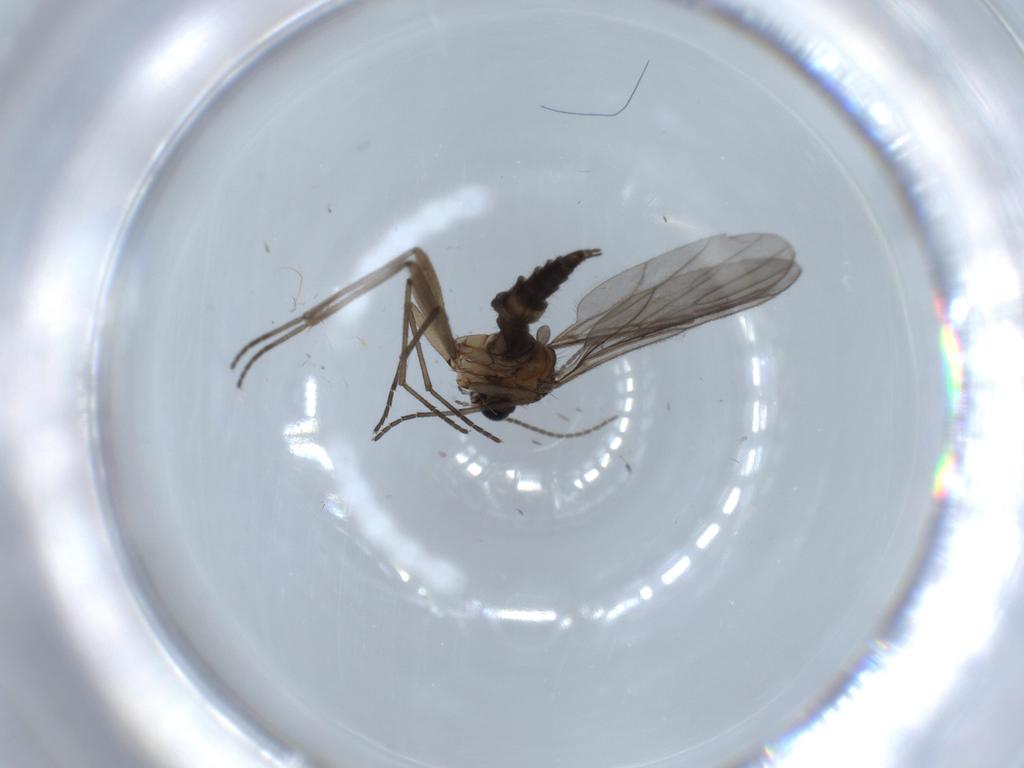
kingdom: Animalia
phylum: Arthropoda
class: Insecta
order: Diptera
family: Sciaridae
